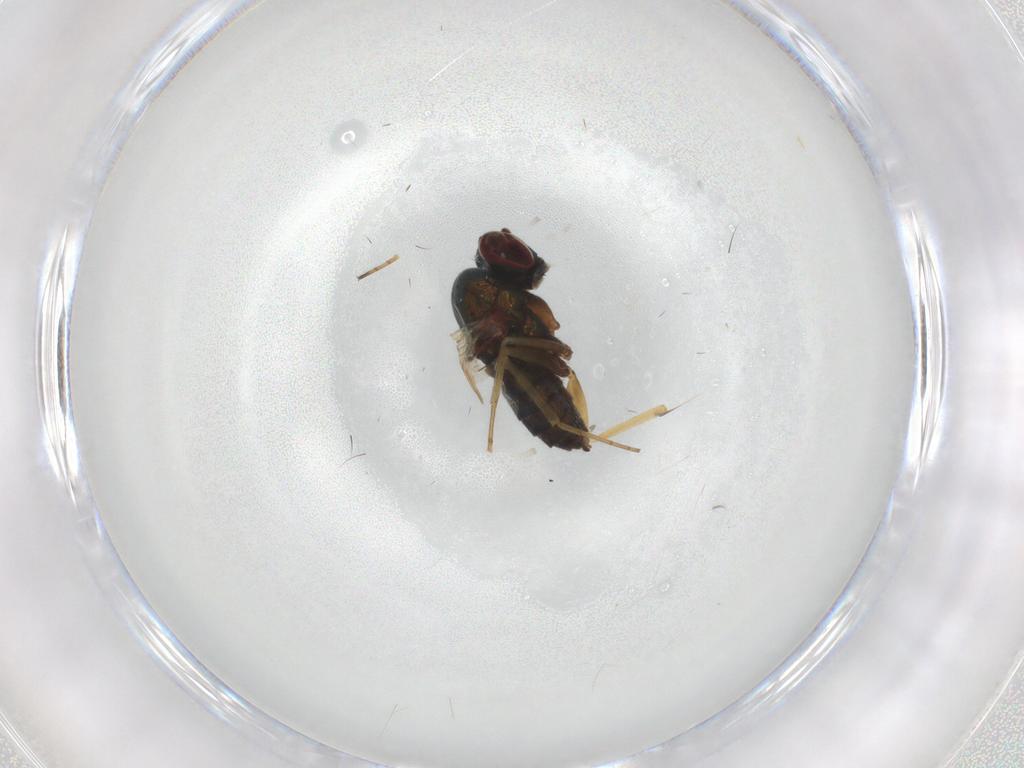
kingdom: Animalia
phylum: Arthropoda
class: Insecta
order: Diptera
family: Dolichopodidae
